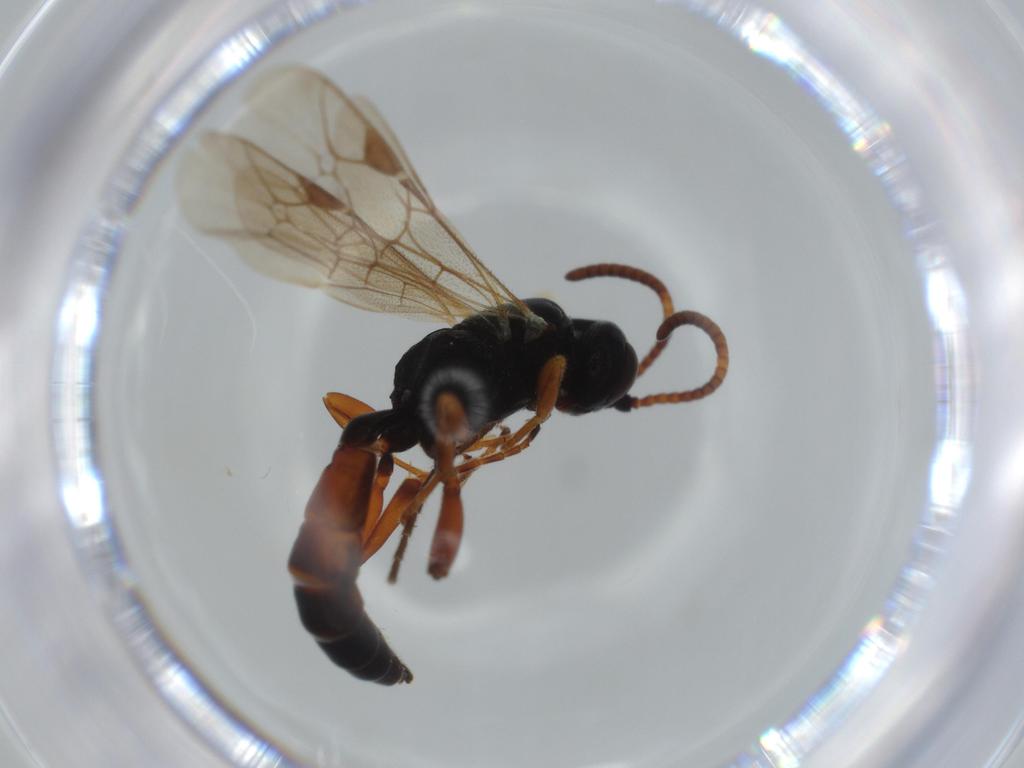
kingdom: Animalia
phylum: Arthropoda
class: Insecta
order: Hymenoptera
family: Ichneumonidae
